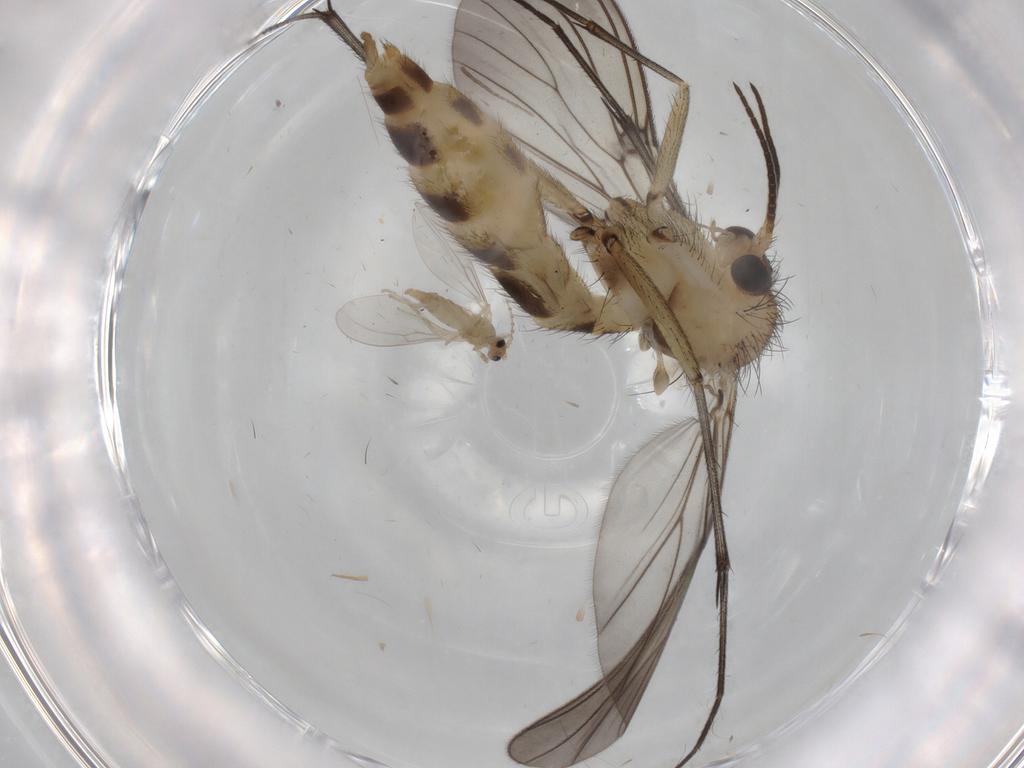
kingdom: Animalia
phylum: Arthropoda
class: Insecta
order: Diptera
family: Mycetophilidae
